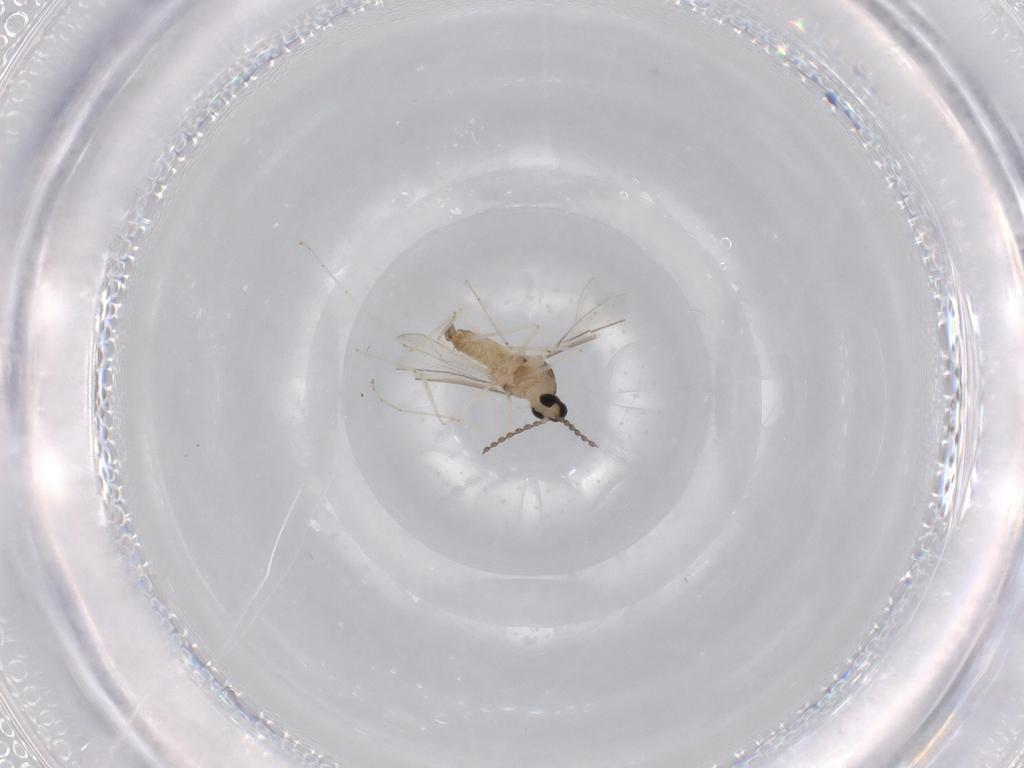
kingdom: Animalia
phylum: Arthropoda
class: Insecta
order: Diptera
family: Cecidomyiidae
